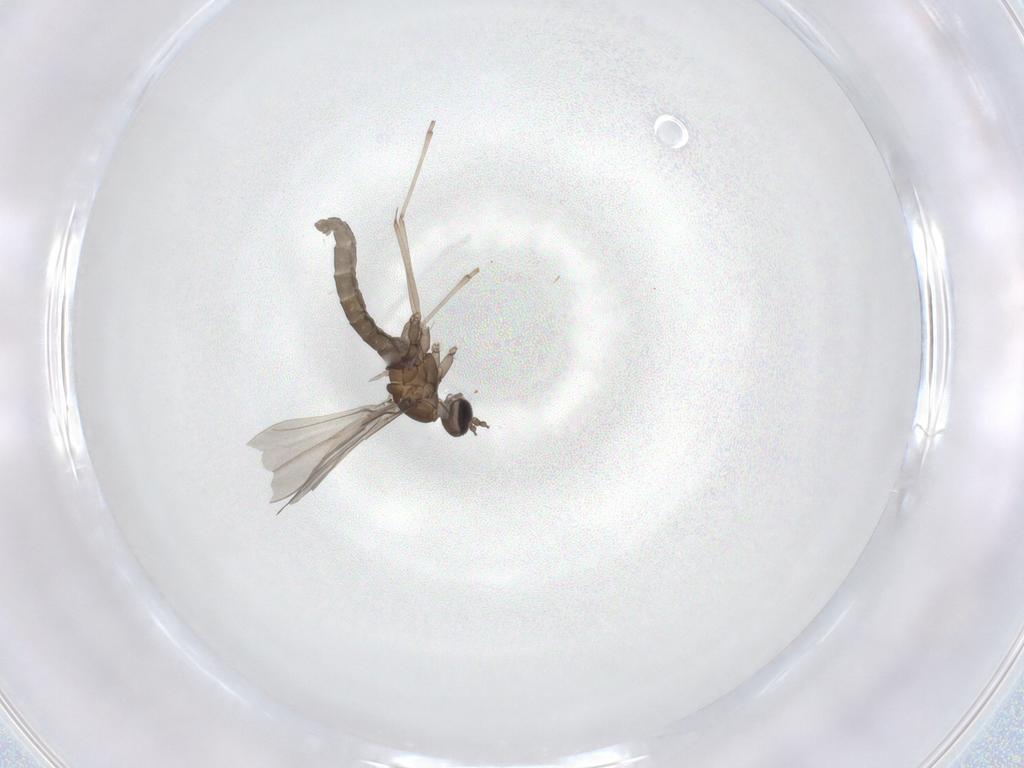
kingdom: Animalia
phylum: Arthropoda
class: Insecta
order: Diptera
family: Cecidomyiidae
